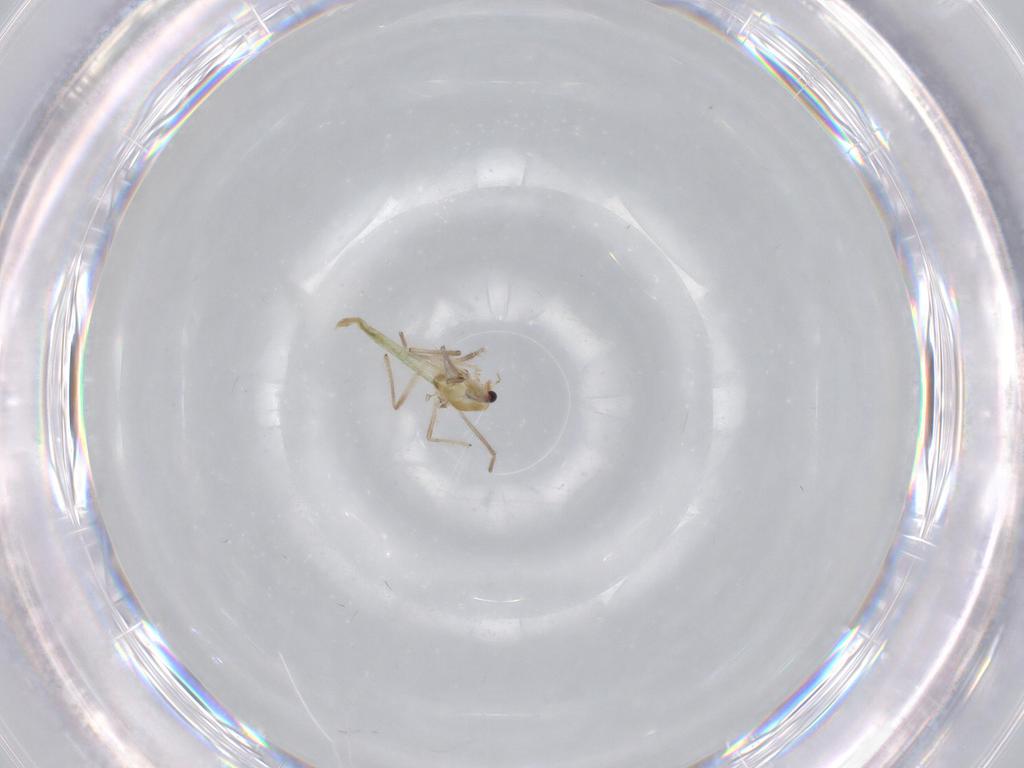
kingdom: Animalia
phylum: Arthropoda
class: Insecta
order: Diptera
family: Chironomidae
